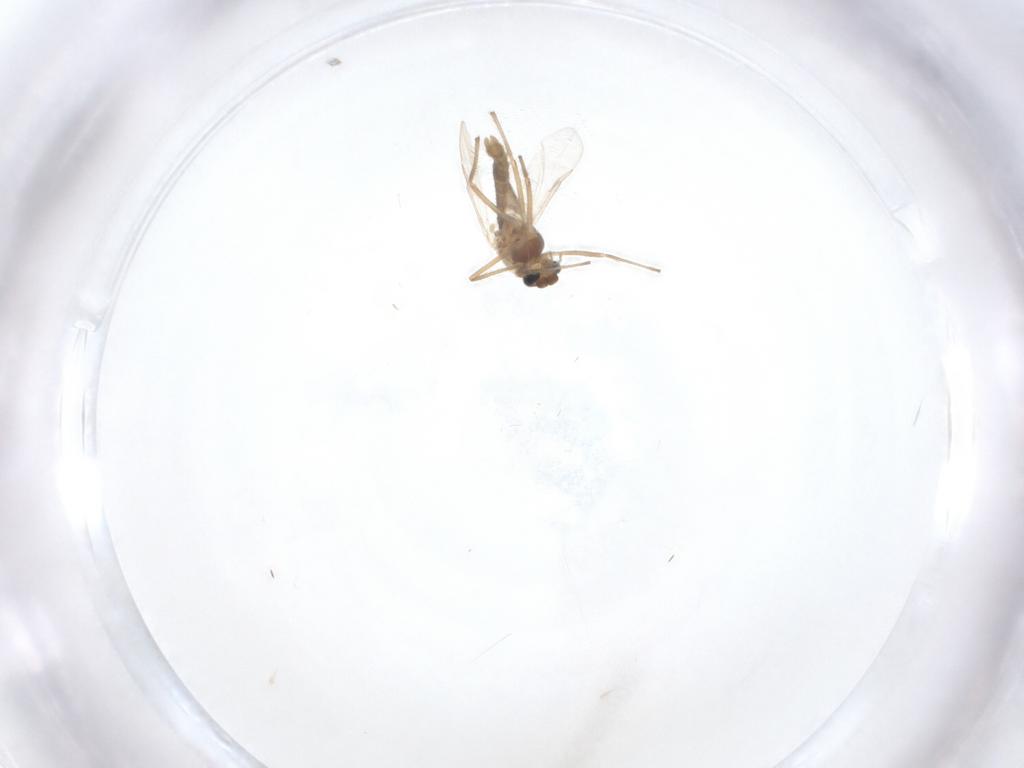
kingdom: Animalia
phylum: Arthropoda
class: Insecta
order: Diptera
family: Chironomidae
